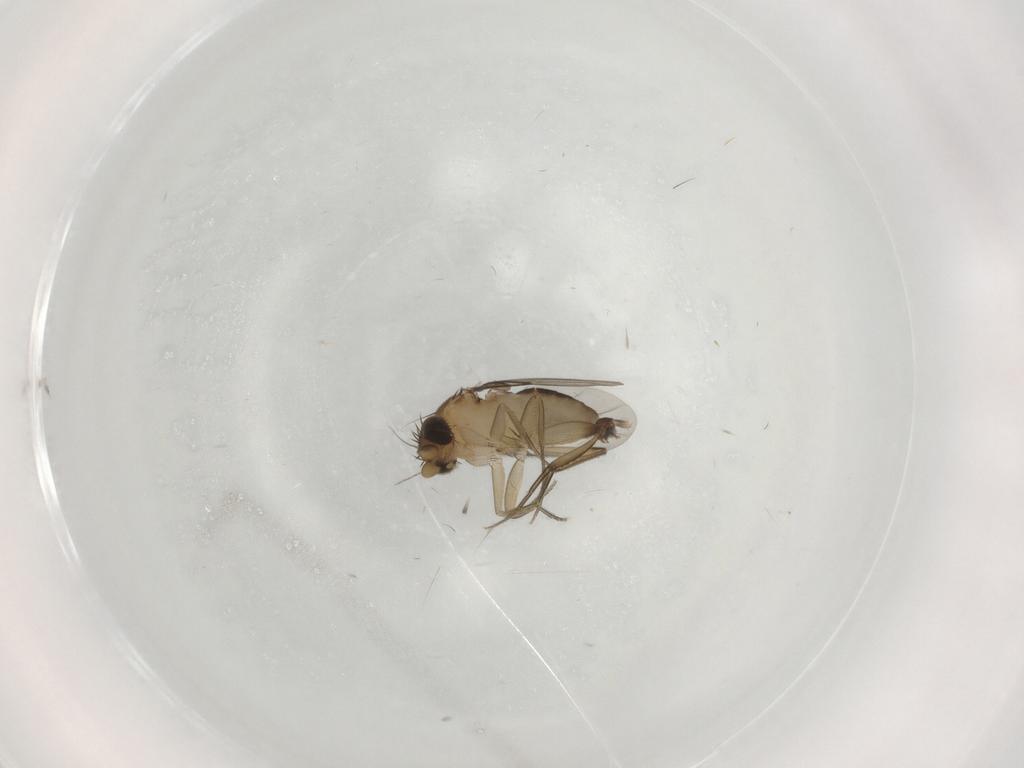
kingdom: Animalia
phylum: Arthropoda
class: Insecta
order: Diptera
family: Phoridae
